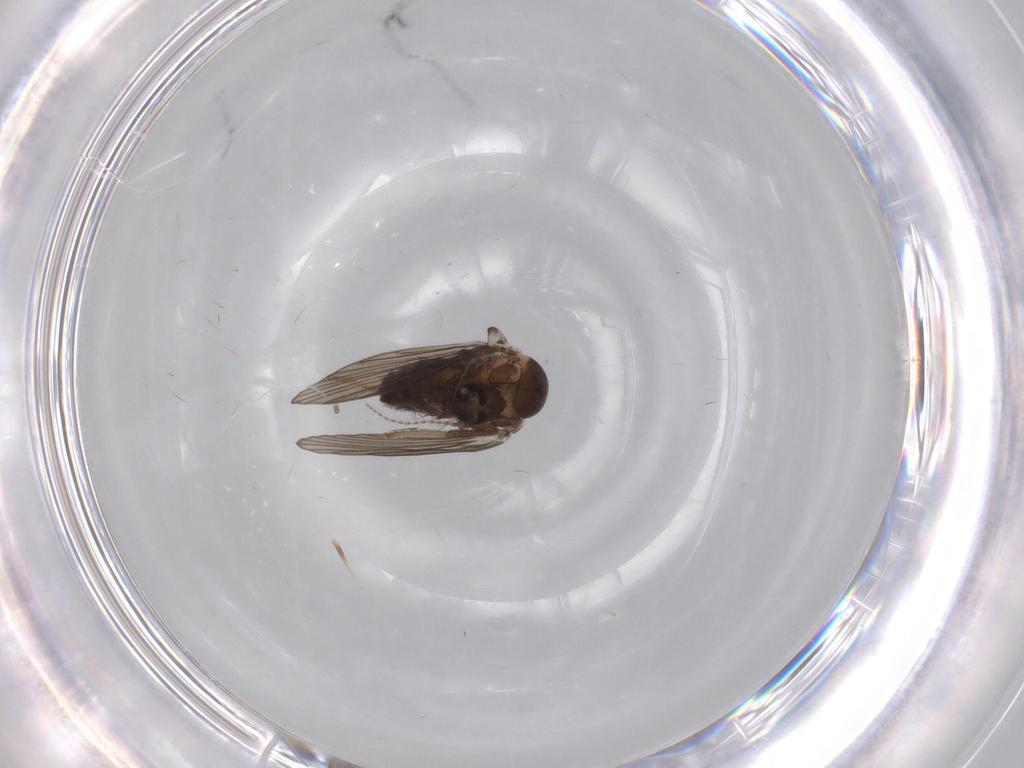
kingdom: Animalia
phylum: Arthropoda
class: Insecta
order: Diptera
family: Psychodidae
